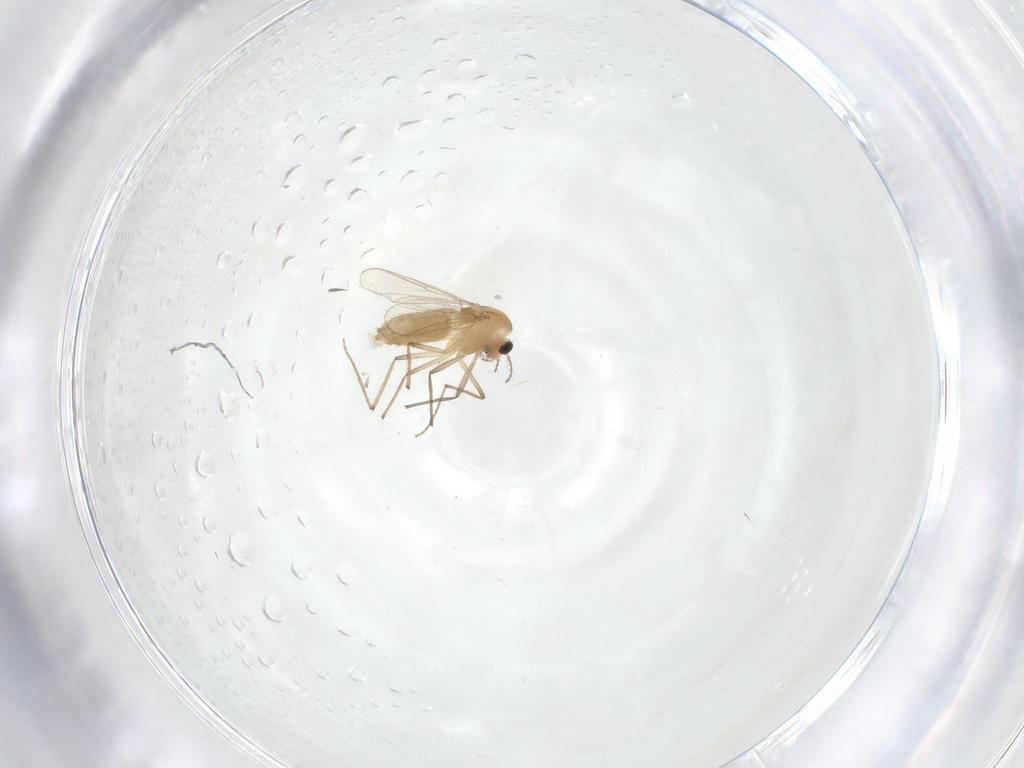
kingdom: Animalia
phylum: Arthropoda
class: Insecta
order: Diptera
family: Chironomidae
